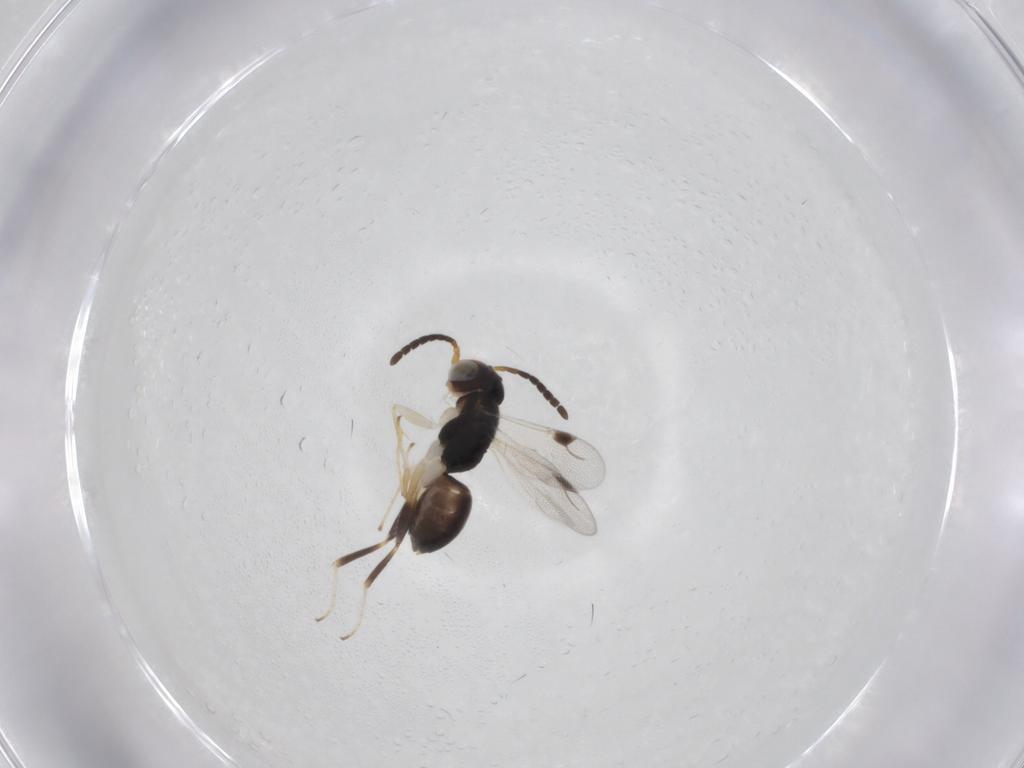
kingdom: Animalia
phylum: Arthropoda
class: Insecta
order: Hymenoptera
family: Dryinidae
